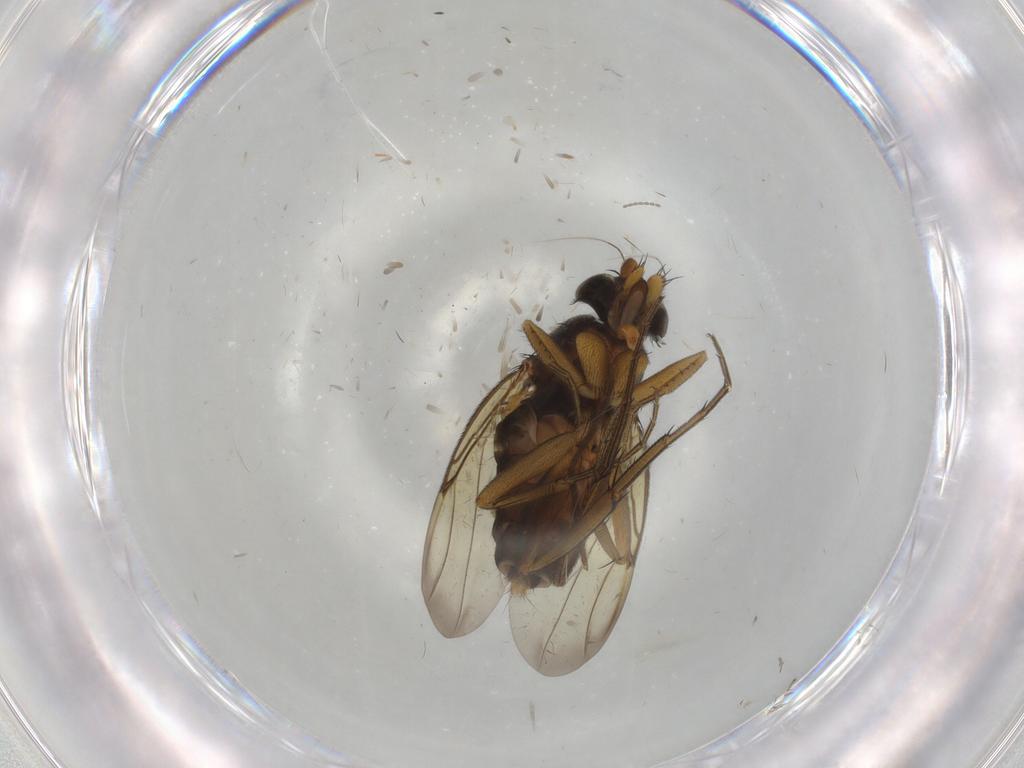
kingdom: Animalia
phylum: Arthropoda
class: Insecta
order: Diptera
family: Phoridae
